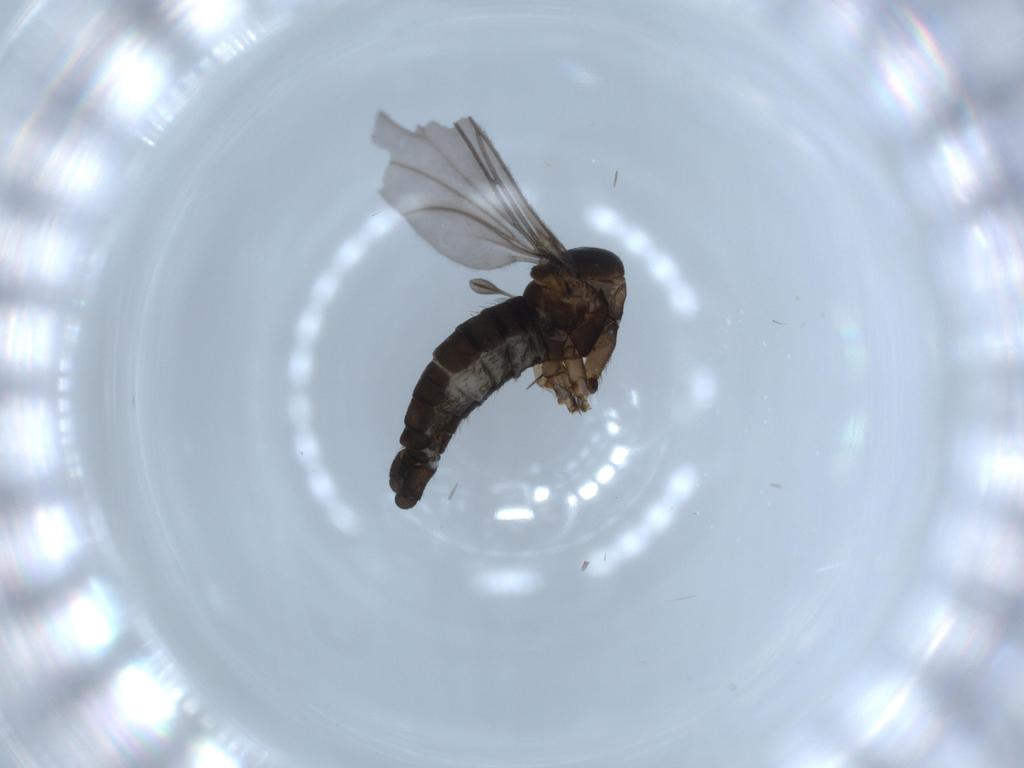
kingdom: Animalia
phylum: Arthropoda
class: Insecta
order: Diptera
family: Sciaridae
